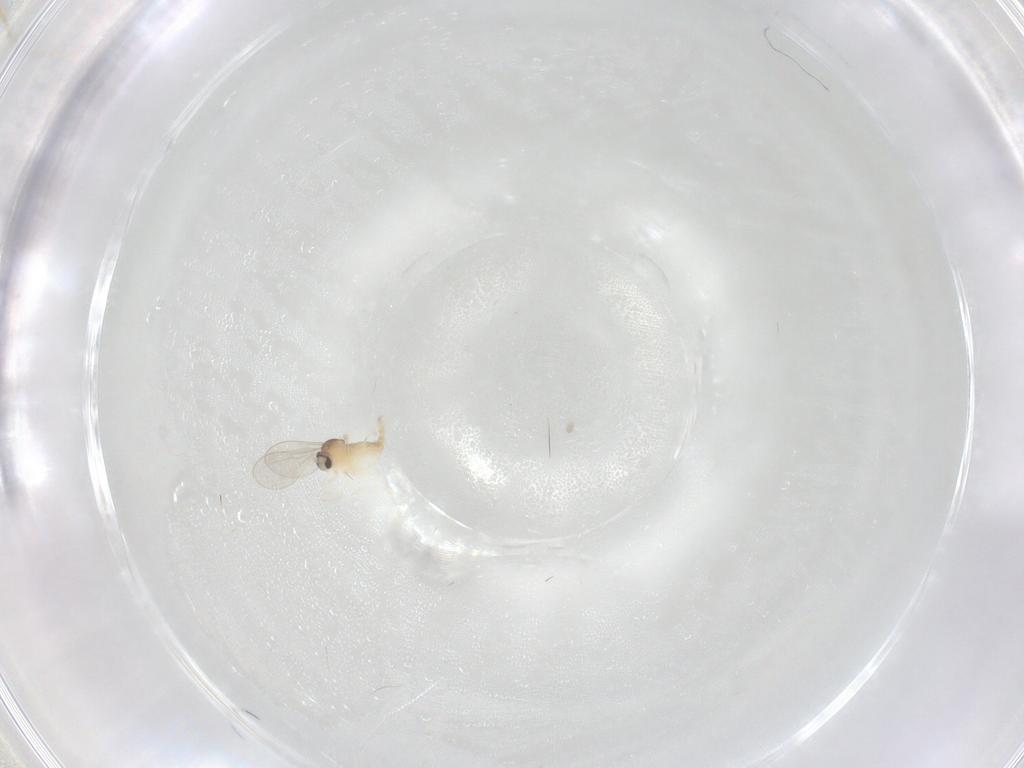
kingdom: Animalia
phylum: Arthropoda
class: Insecta
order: Diptera
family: Cecidomyiidae
